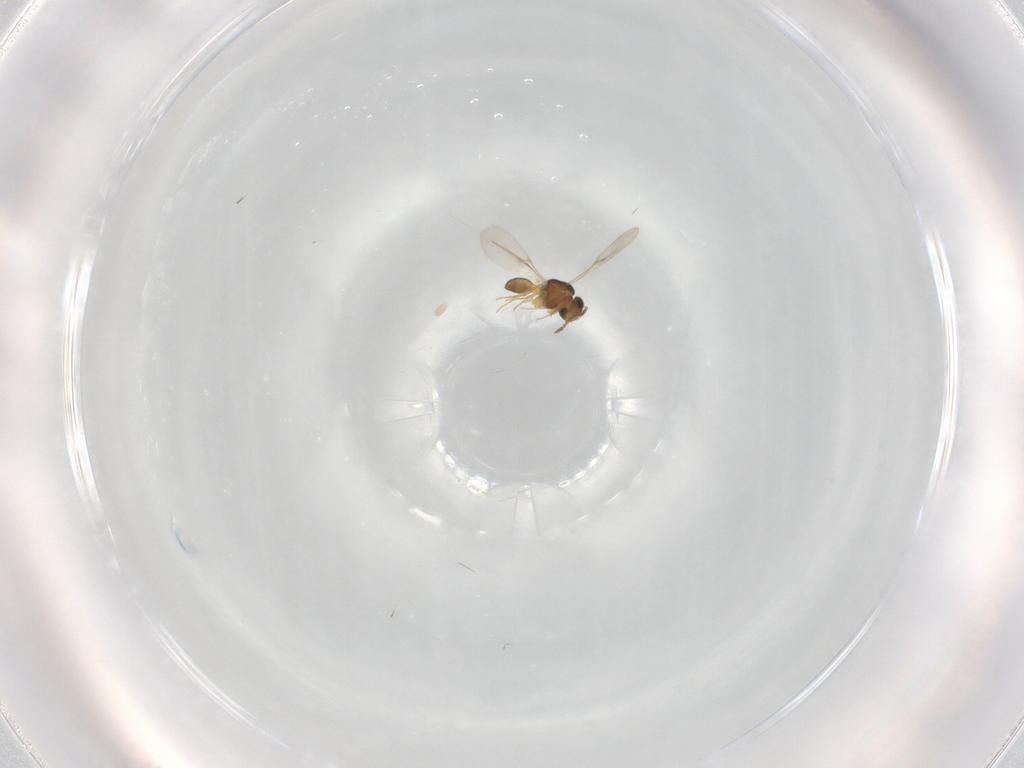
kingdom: Animalia
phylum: Arthropoda
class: Insecta
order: Hymenoptera
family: Scelionidae
